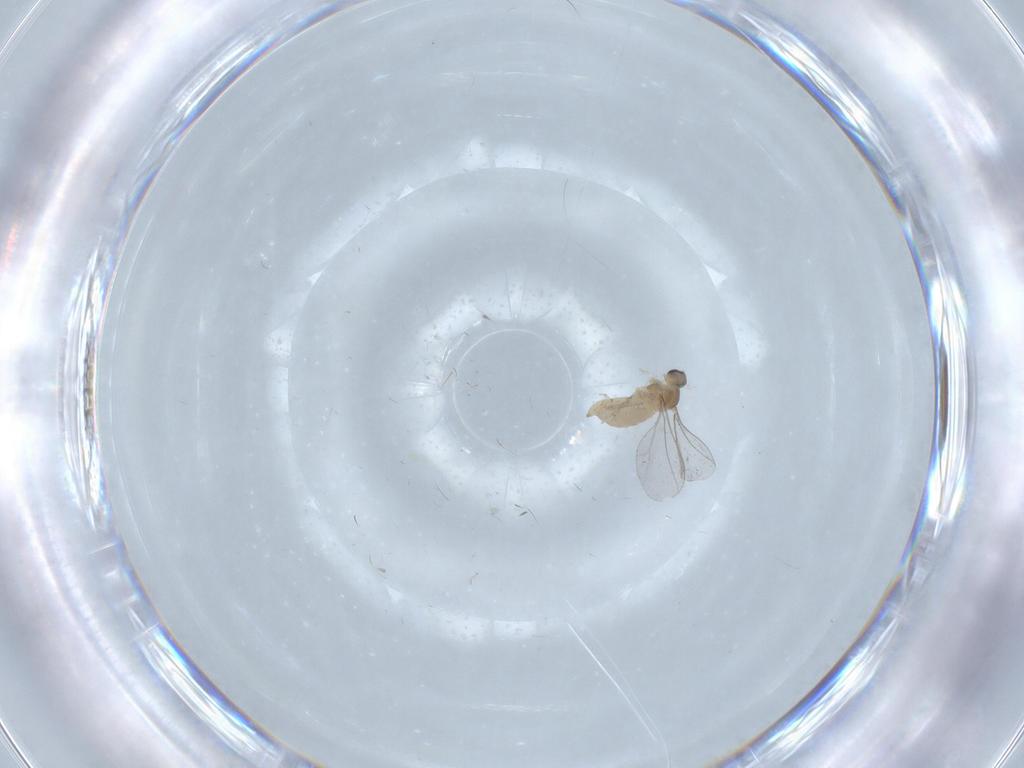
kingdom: Animalia
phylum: Arthropoda
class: Insecta
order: Diptera
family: Cecidomyiidae
